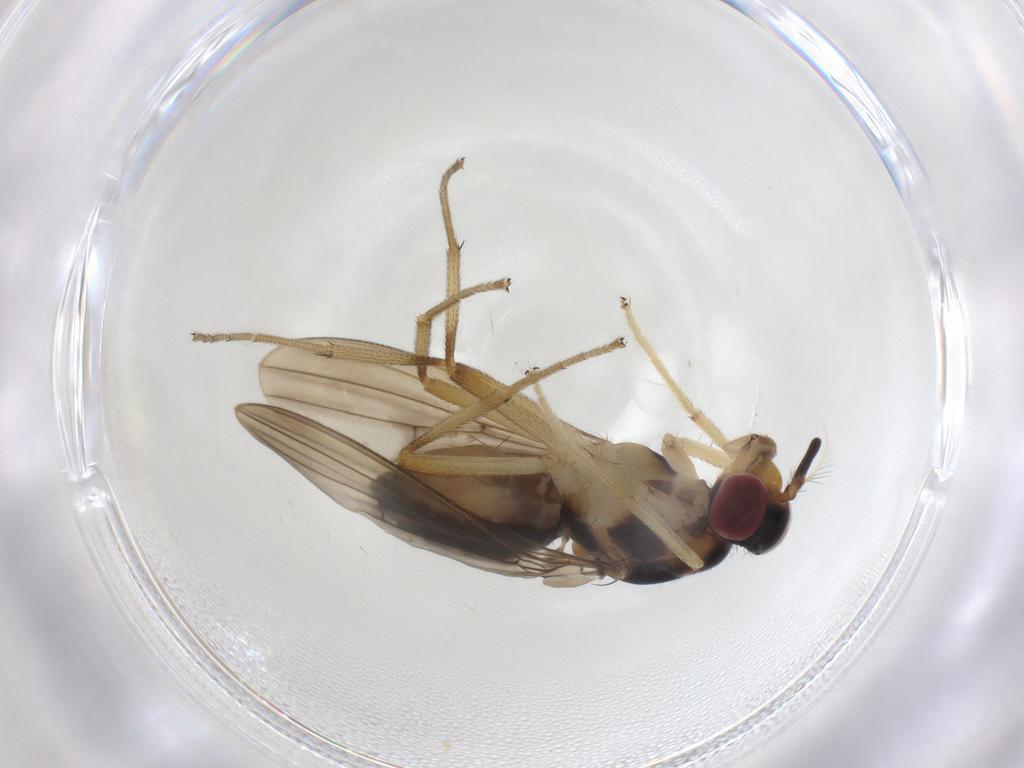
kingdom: Animalia
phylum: Arthropoda
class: Insecta
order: Diptera
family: Lauxaniidae
